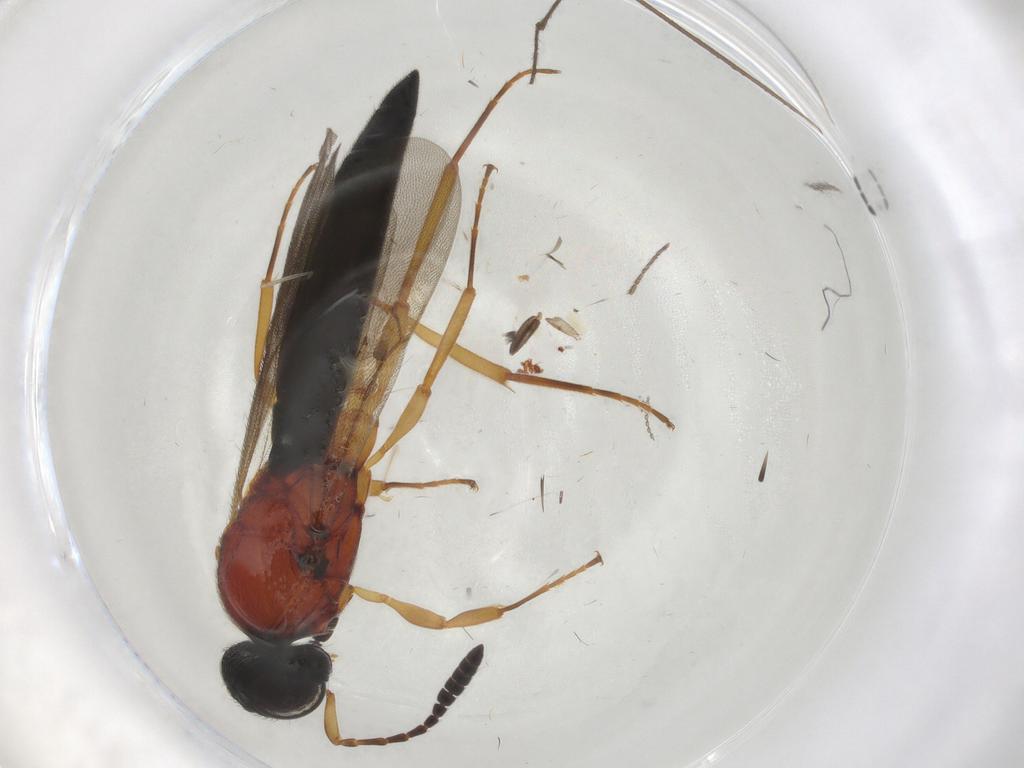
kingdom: Animalia
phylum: Arthropoda
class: Insecta
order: Hymenoptera
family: Scelionidae
